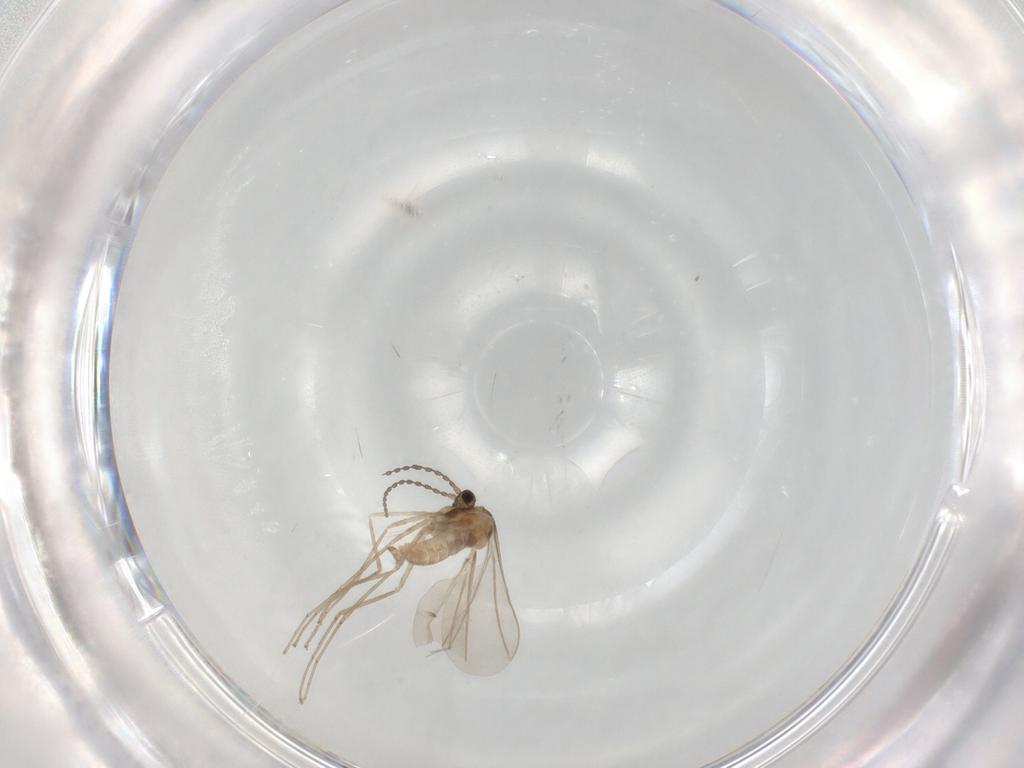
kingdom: Animalia
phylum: Arthropoda
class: Insecta
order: Diptera
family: Cecidomyiidae
